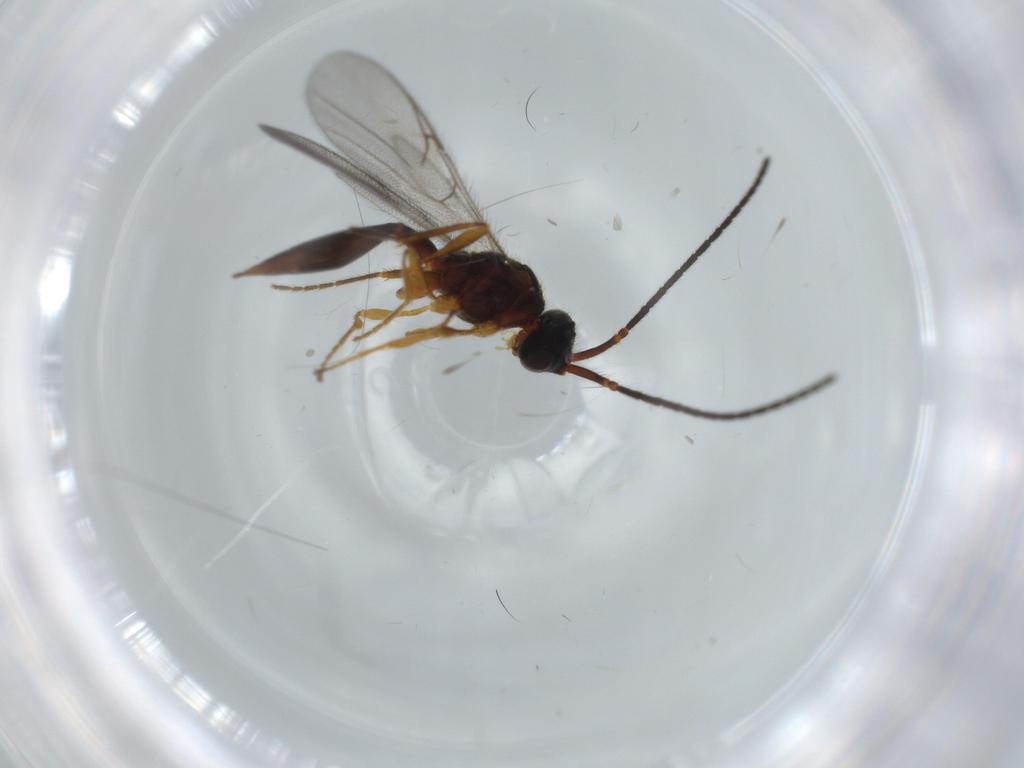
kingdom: Animalia
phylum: Arthropoda
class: Insecta
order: Hymenoptera
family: Diapriidae
